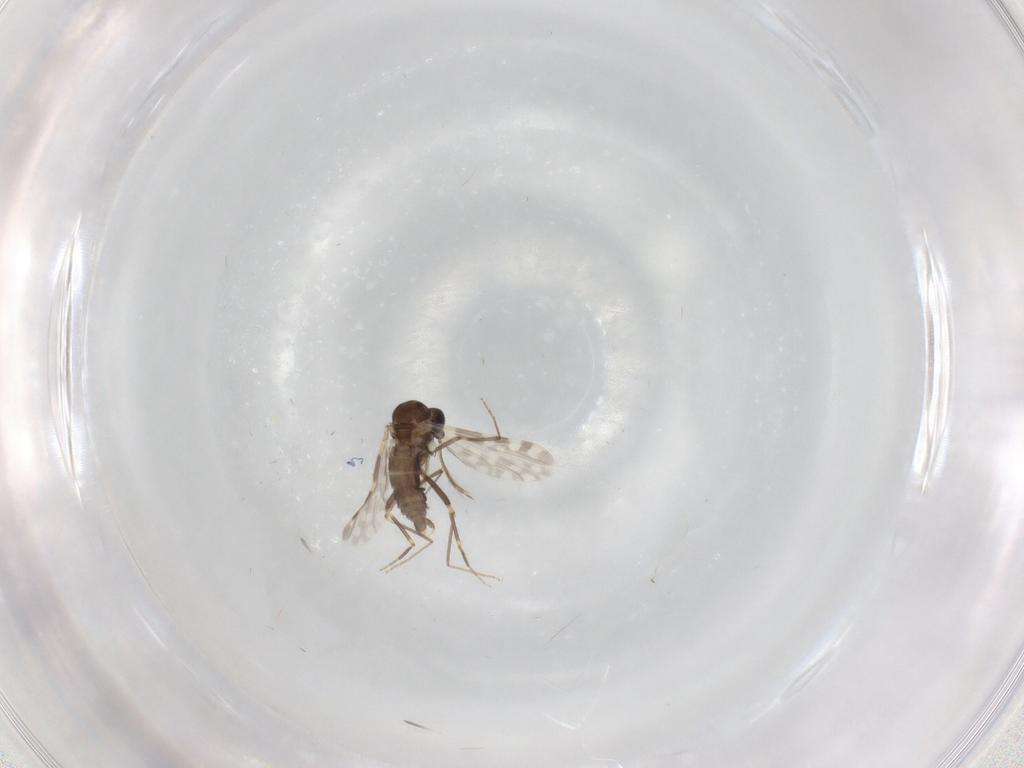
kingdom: Animalia
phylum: Arthropoda
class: Insecta
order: Diptera
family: Phoridae
